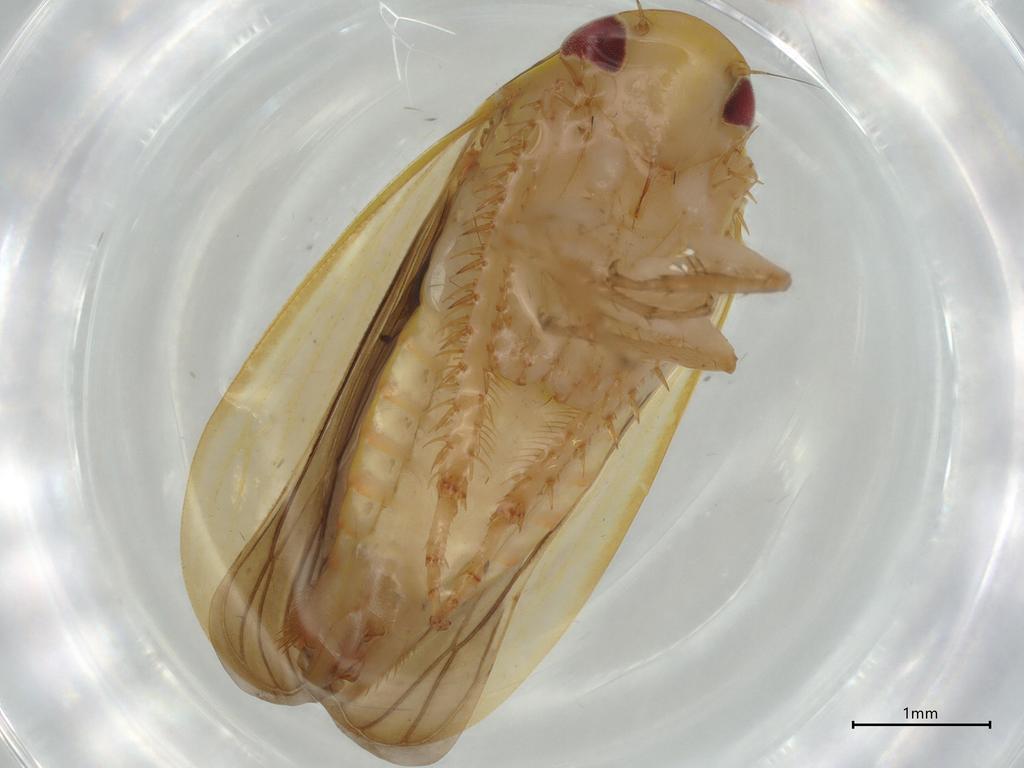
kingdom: Animalia
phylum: Arthropoda
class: Insecta
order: Hemiptera
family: Cicadellidae
